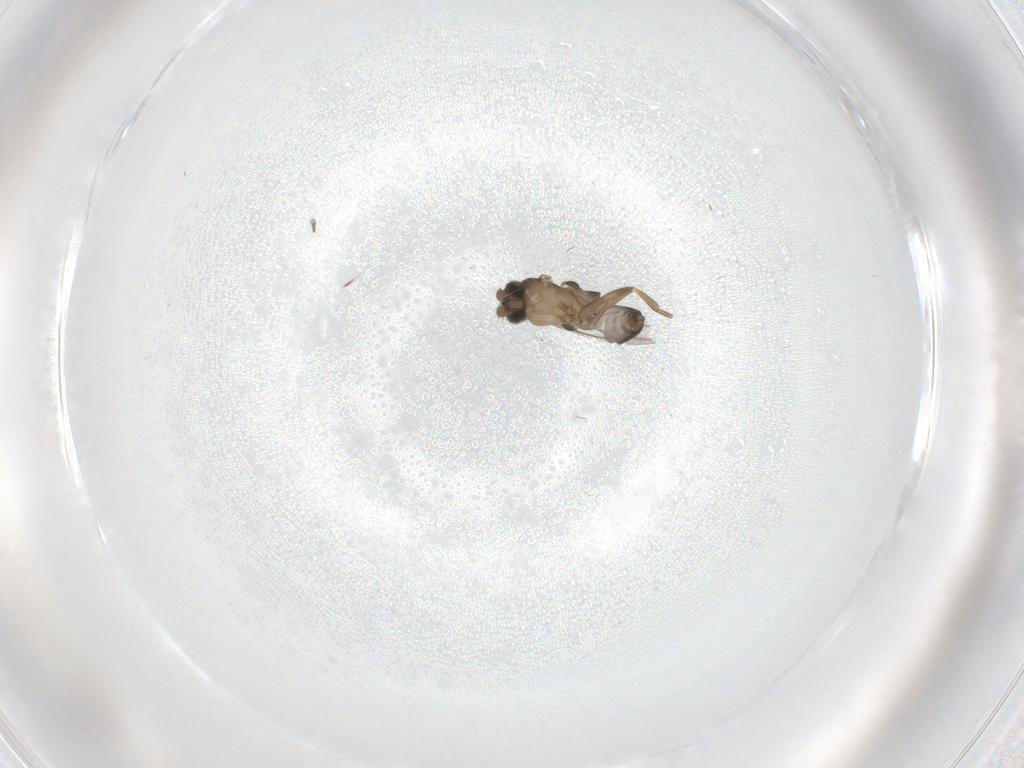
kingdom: Animalia
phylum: Arthropoda
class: Insecta
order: Diptera
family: Phoridae
